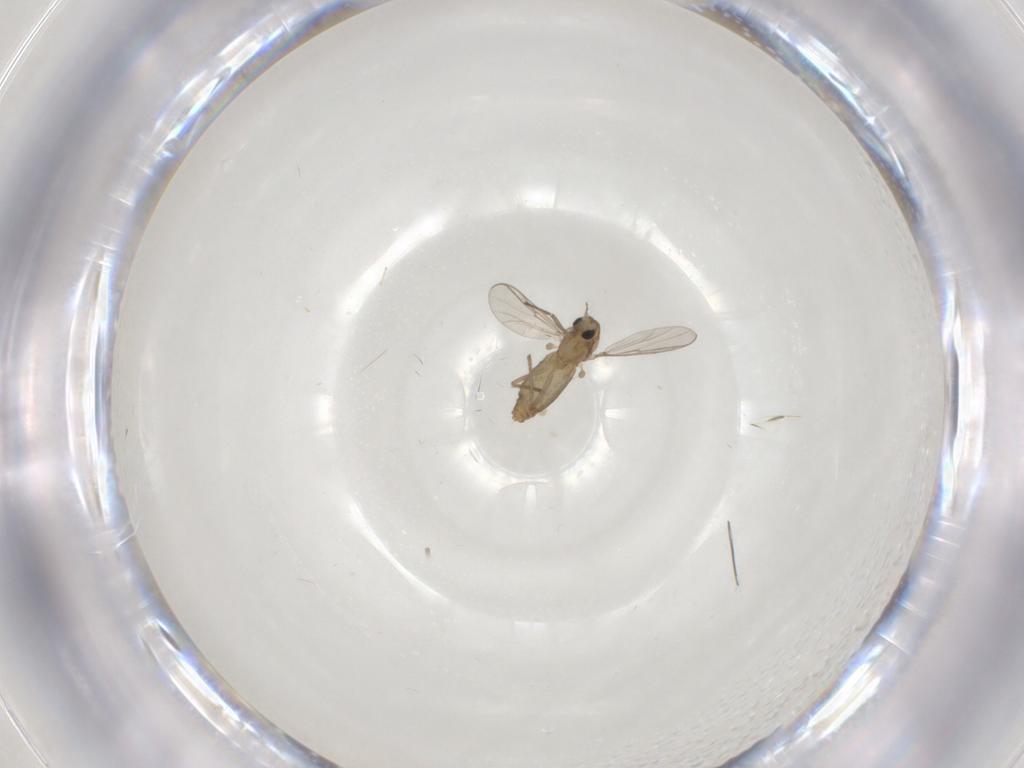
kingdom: Animalia
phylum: Arthropoda
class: Insecta
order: Diptera
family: Chironomidae
